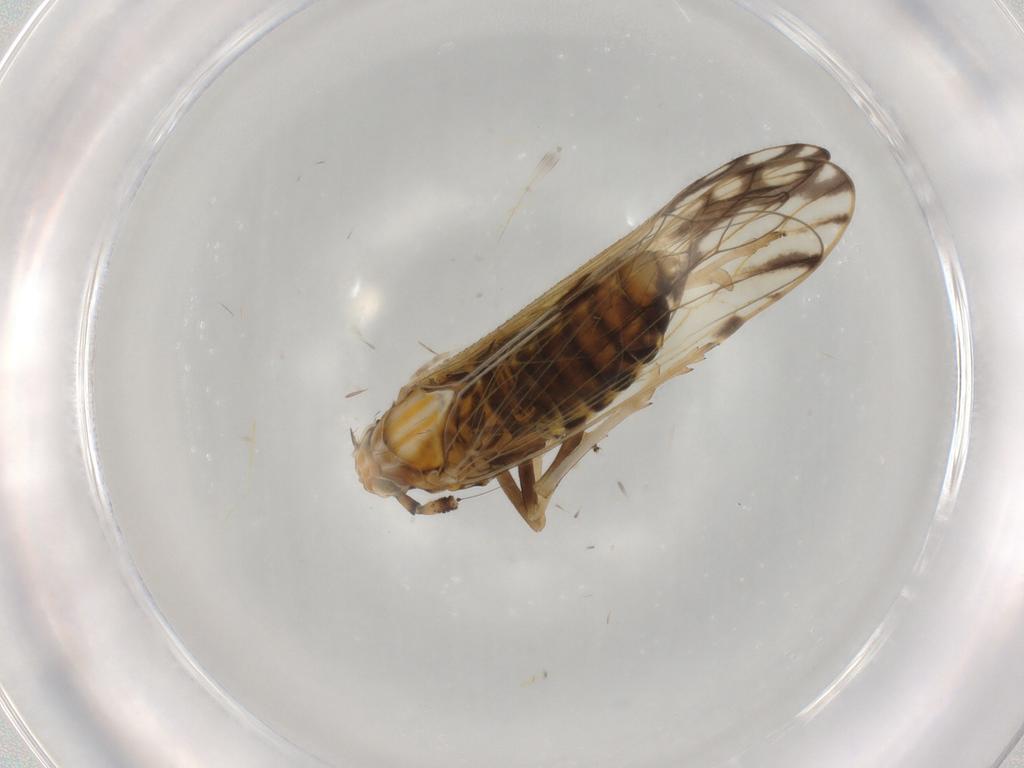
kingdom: Animalia
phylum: Arthropoda
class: Insecta
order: Hemiptera
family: Delphacidae
